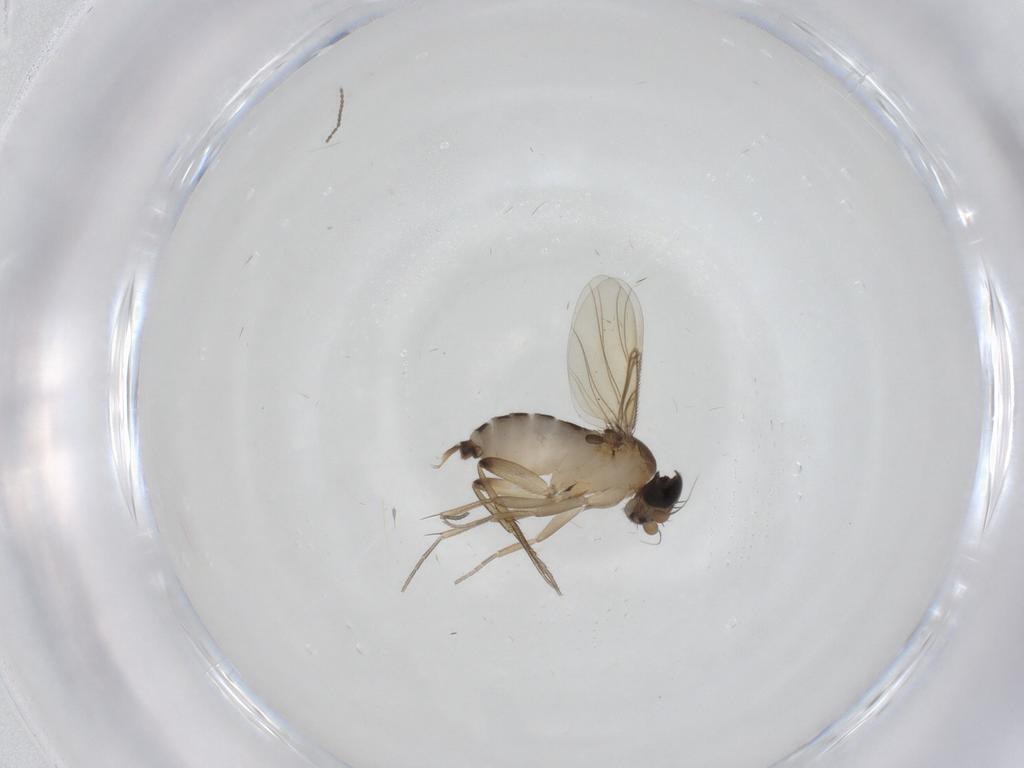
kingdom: Animalia
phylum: Arthropoda
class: Insecta
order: Diptera
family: Phoridae
